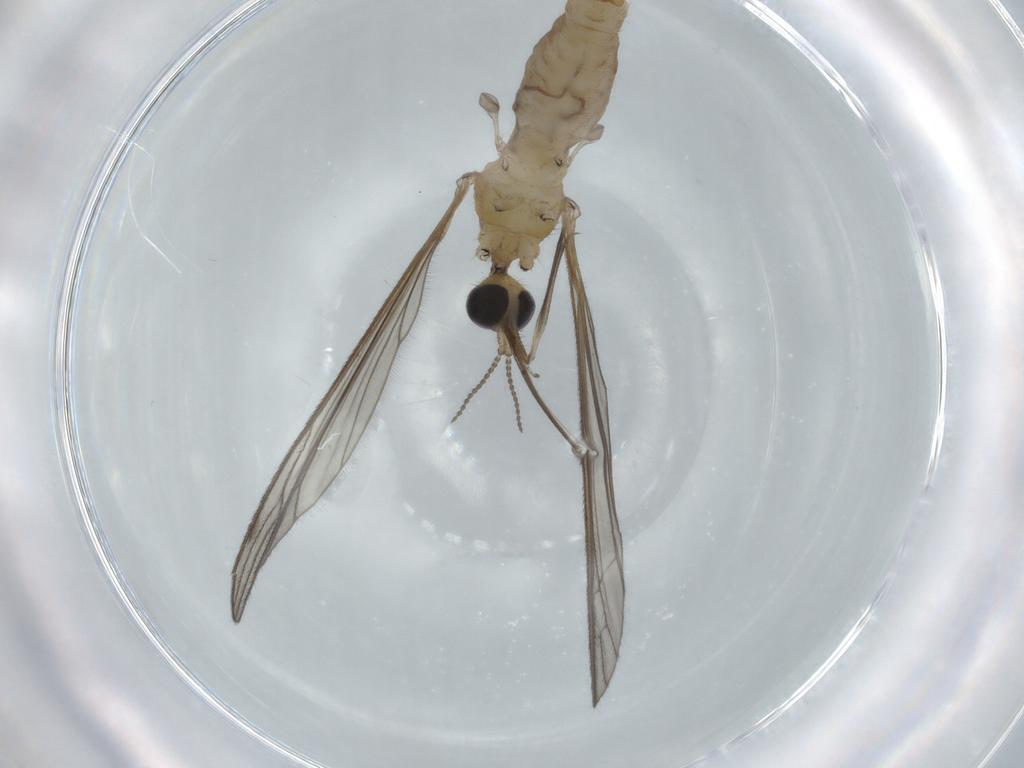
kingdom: Animalia
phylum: Arthropoda
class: Insecta
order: Diptera
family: Limoniidae
